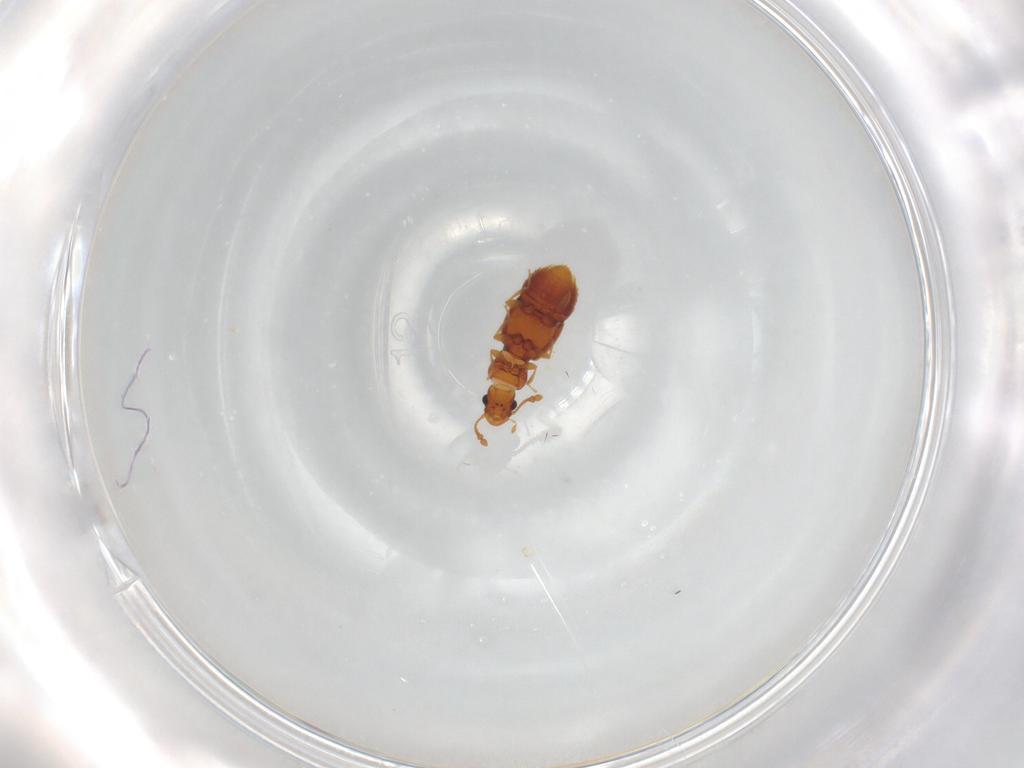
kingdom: Animalia
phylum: Arthropoda
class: Insecta
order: Coleoptera
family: Staphylinidae
